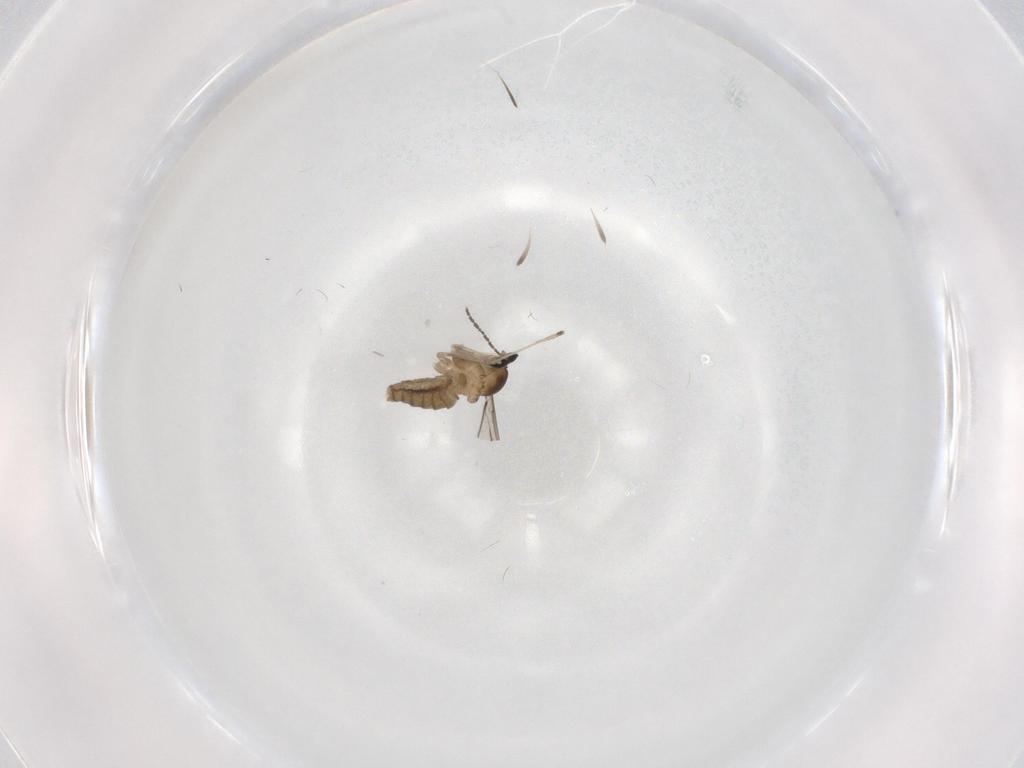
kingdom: Animalia
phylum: Arthropoda
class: Insecta
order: Diptera
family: Cecidomyiidae
